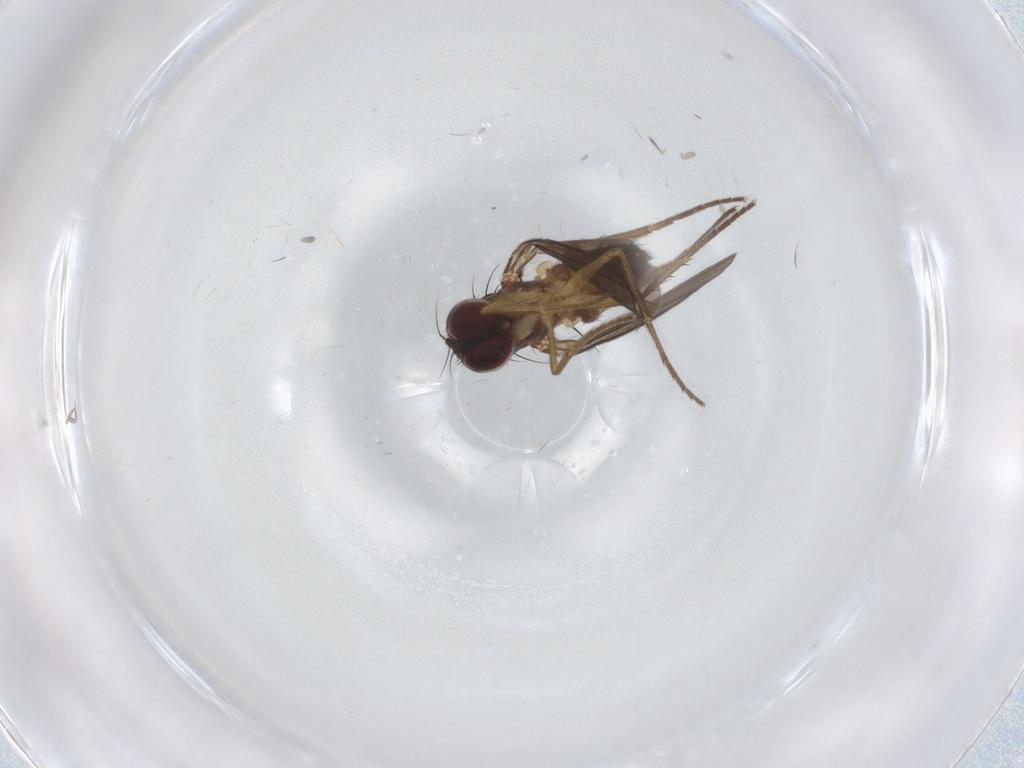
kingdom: Animalia
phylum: Arthropoda
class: Insecta
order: Diptera
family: Dolichopodidae
